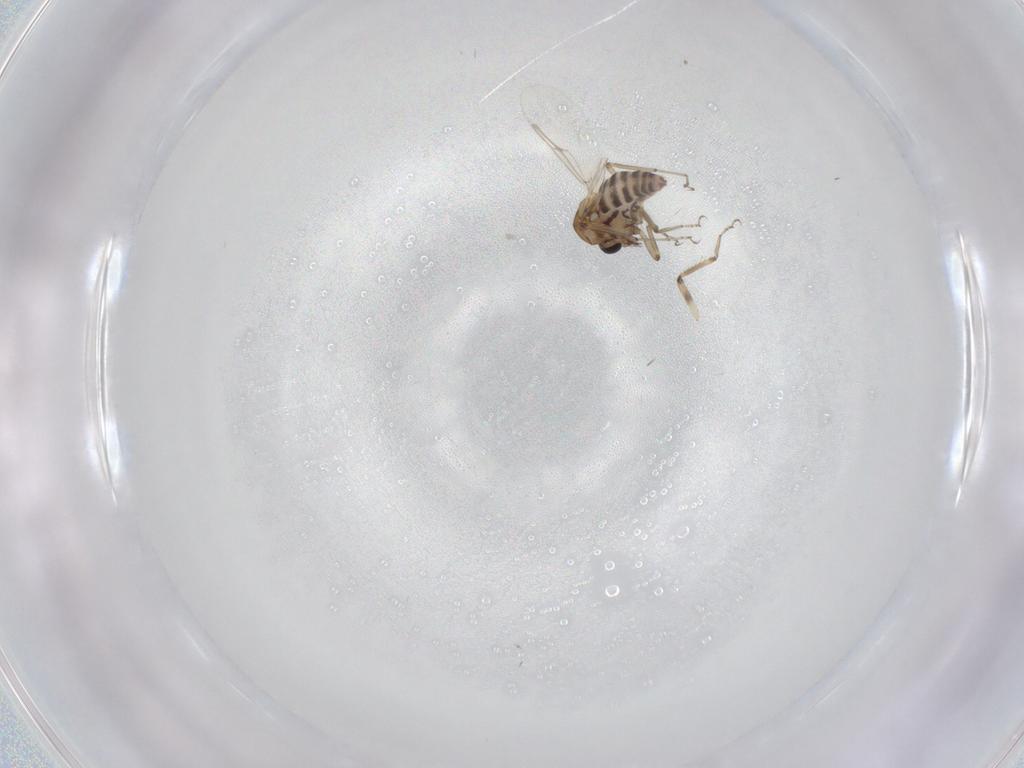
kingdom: Animalia
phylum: Arthropoda
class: Insecta
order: Diptera
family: Ceratopogonidae
